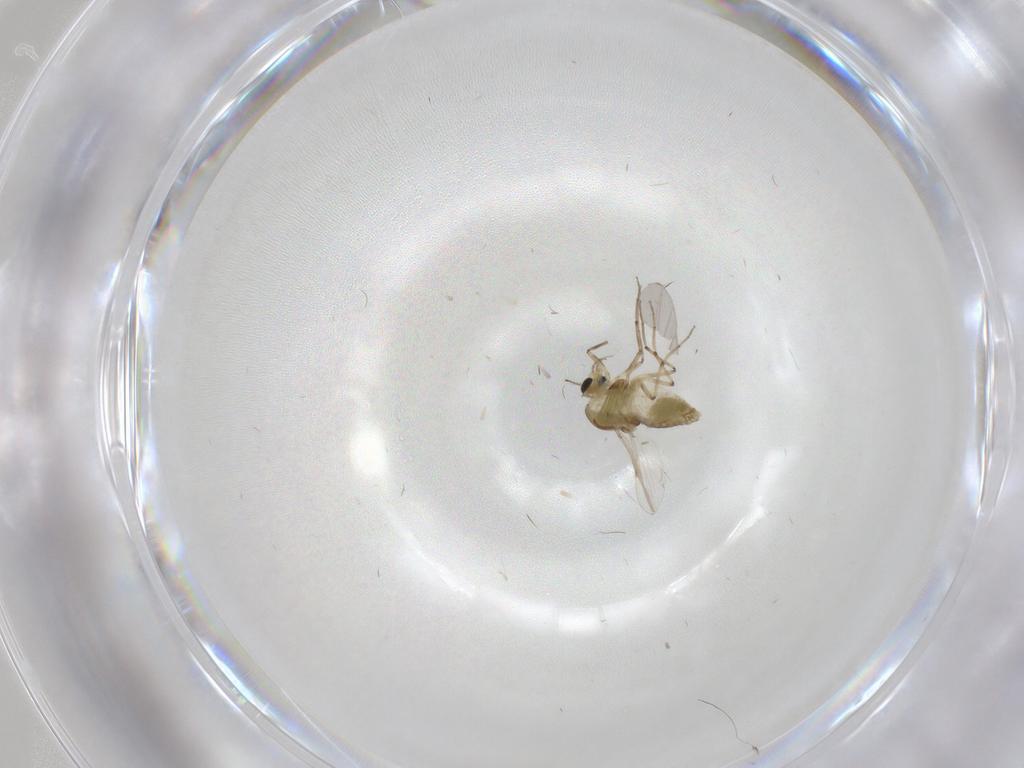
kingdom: Animalia
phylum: Arthropoda
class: Insecta
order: Diptera
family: Chironomidae
